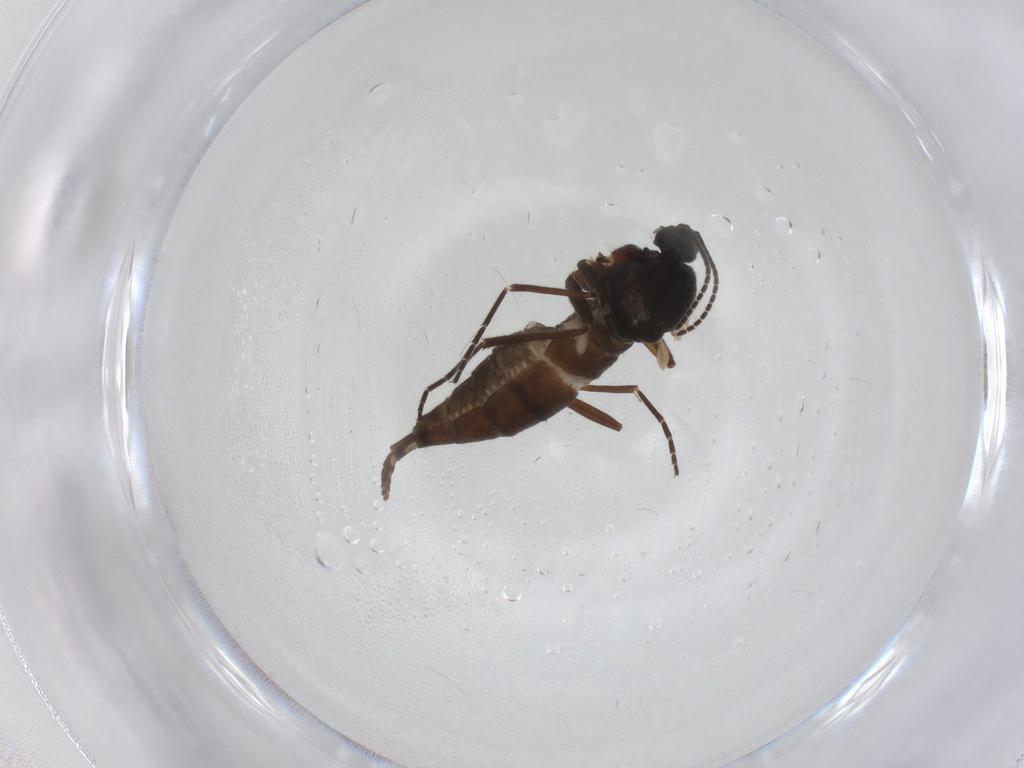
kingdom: Animalia
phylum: Arthropoda
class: Insecta
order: Diptera
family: Sciaridae
